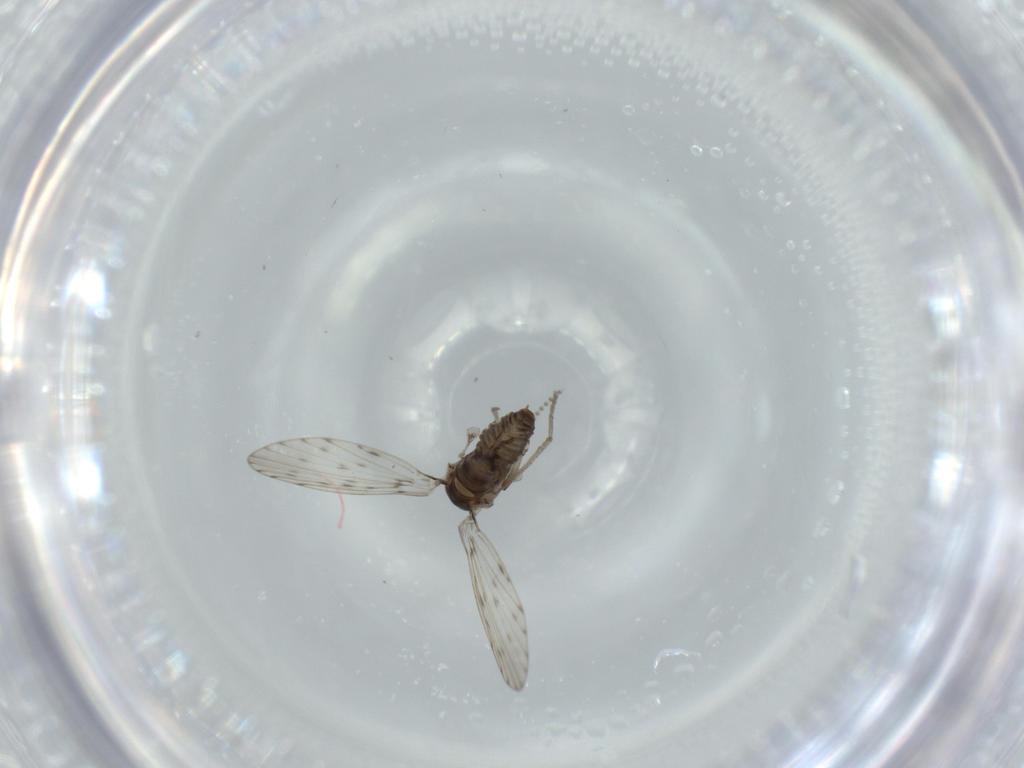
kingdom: Animalia
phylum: Arthropoda
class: Insecta
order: Diptera
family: Psychodidae
